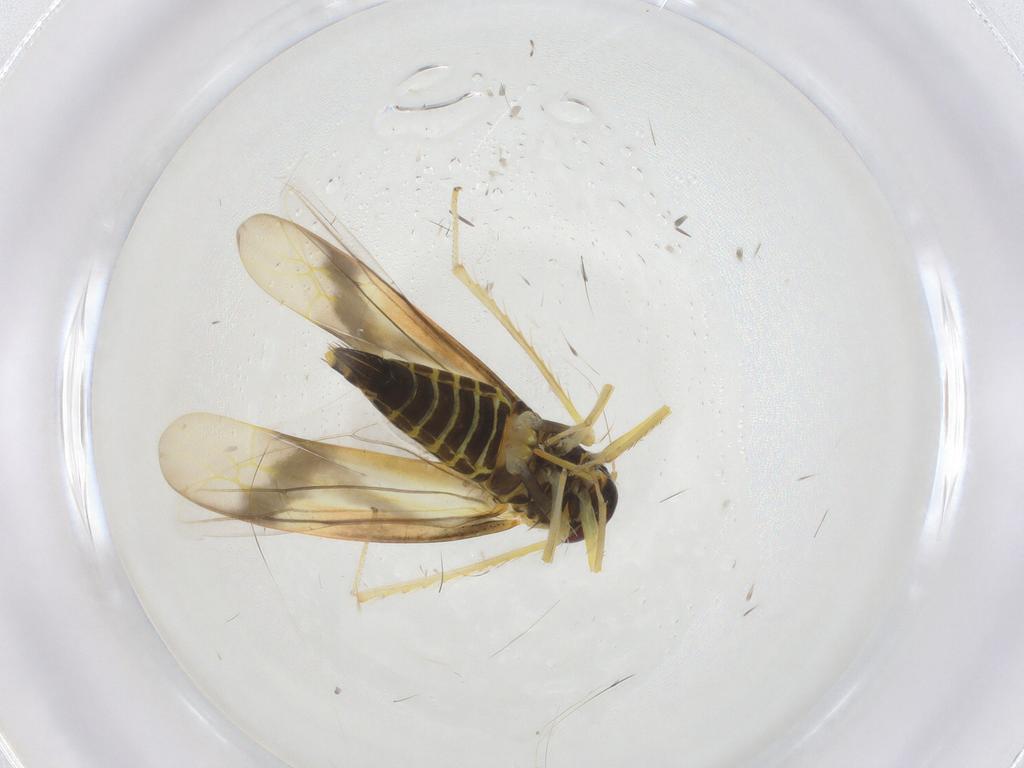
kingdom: Animalia
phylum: Arthropoda
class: Insecta
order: Hemiptera
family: Cicadellidae
